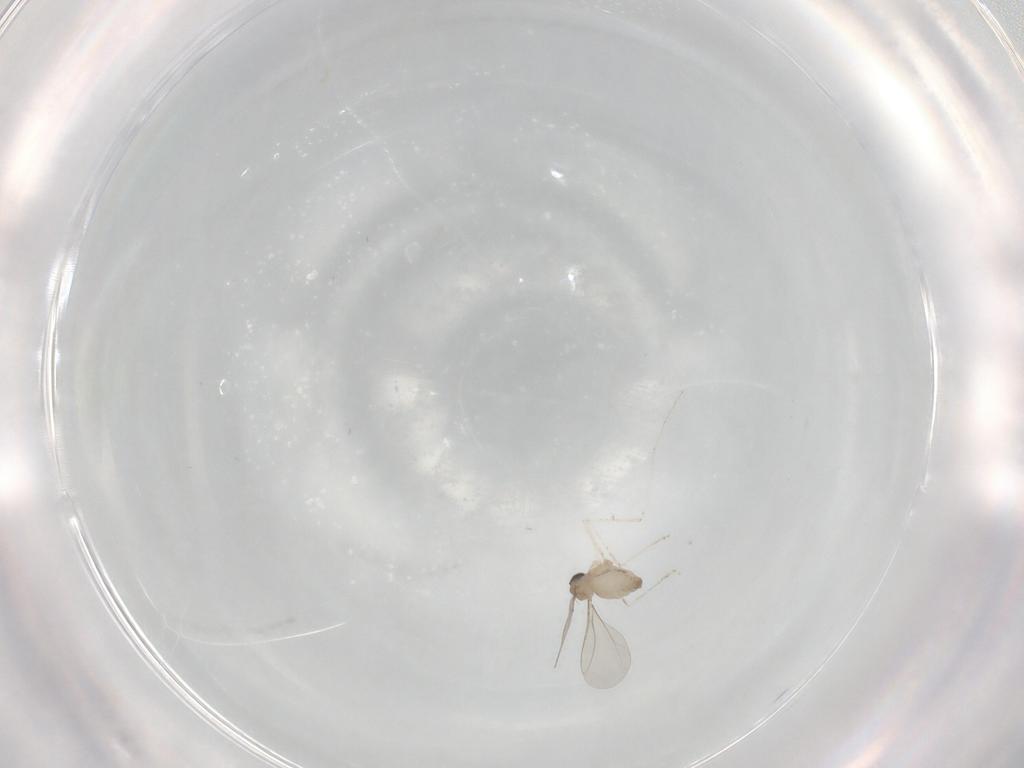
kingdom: Animalia
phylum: Arthropoda
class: Insecta
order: Diptera
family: Cecidomyiidae
